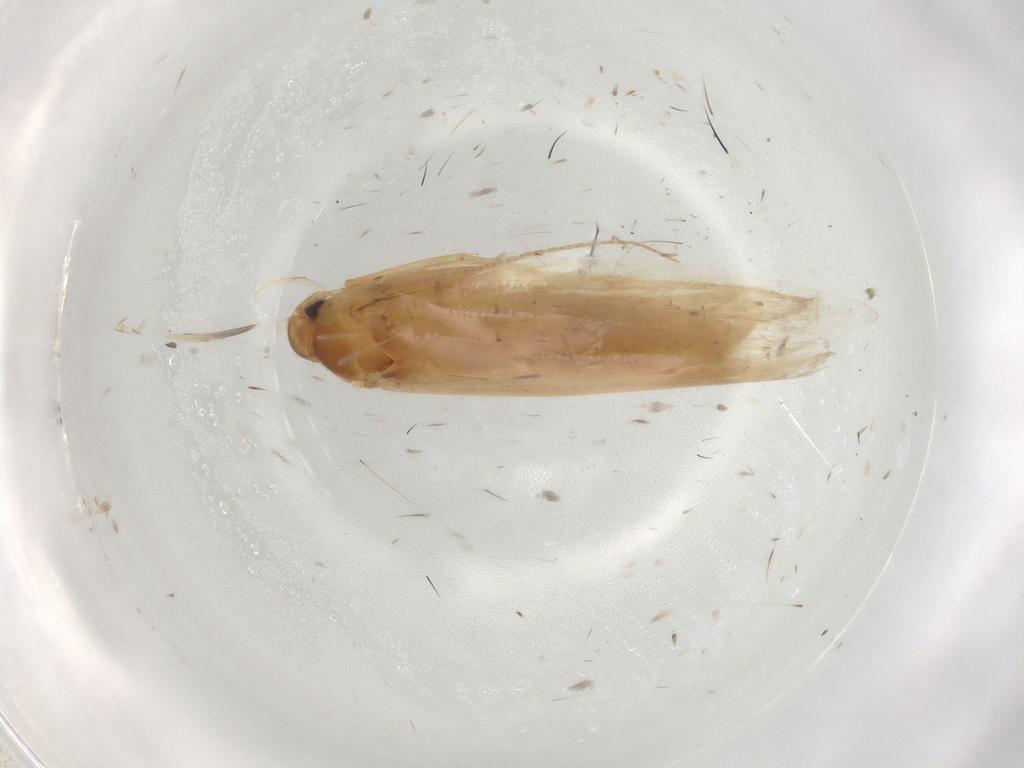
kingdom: Animalia
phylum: Arthropoda
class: Insecta
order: Lepidoptera
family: Gelechiidae
